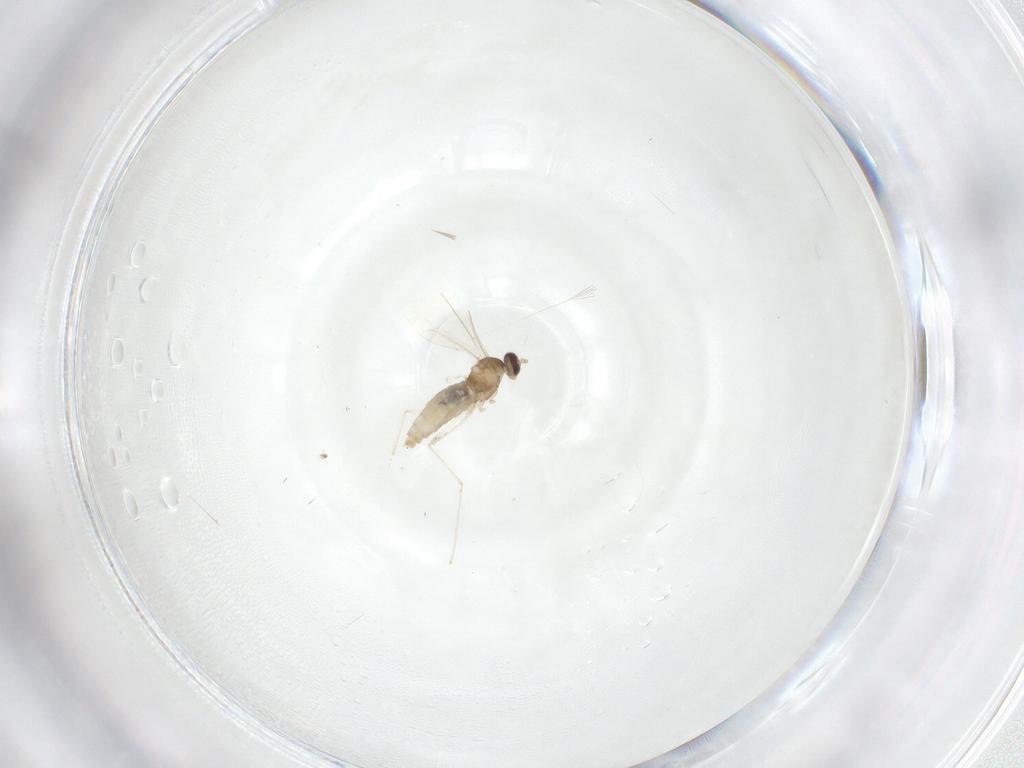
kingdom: Animalia
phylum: Arthropoda
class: Insecta
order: Diptera
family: Cecidomyiidae
